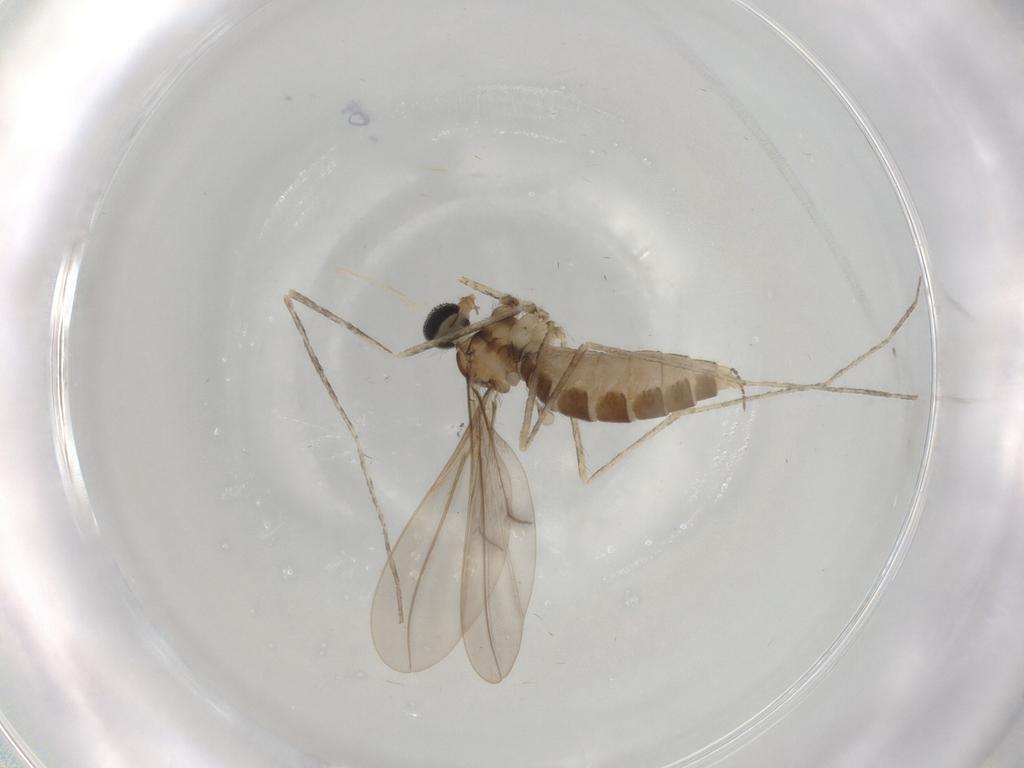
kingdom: Animalia
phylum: Arthropoda
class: Insecta
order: Diptera
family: Cecidomyiidae
